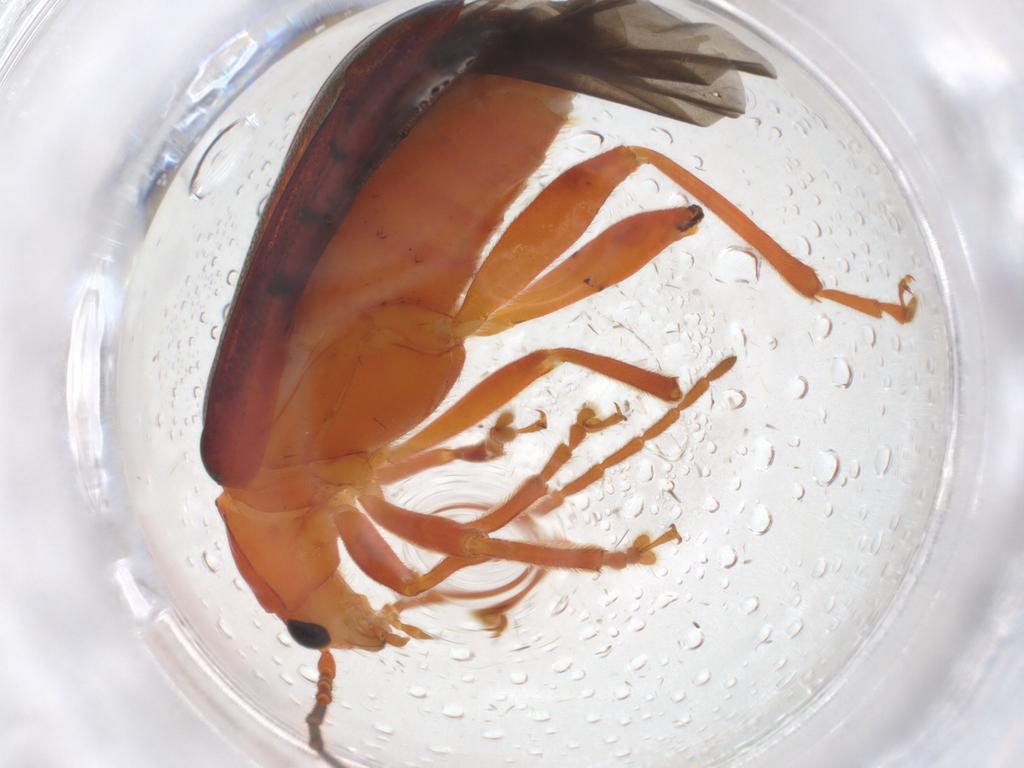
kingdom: Animalia
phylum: Arthropoda
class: Insecta
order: Coleoptera
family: Chrysomelidae
